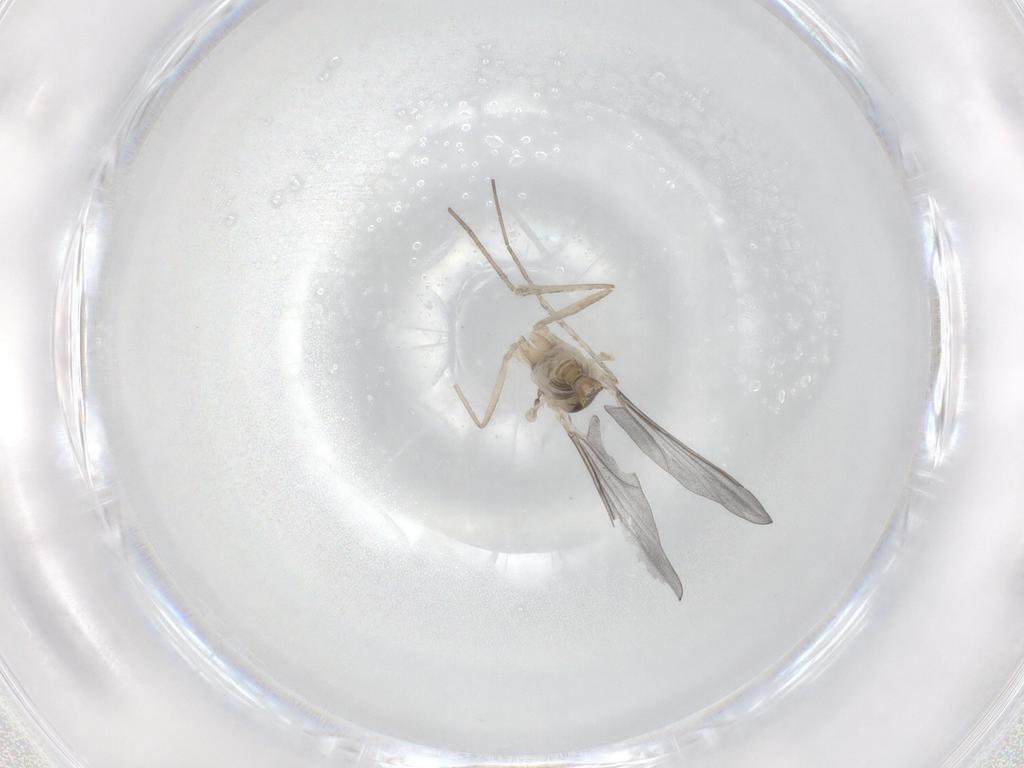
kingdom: Animalia
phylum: Arthropoda
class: Insecta
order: Diptera
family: Cecidomyiidae
